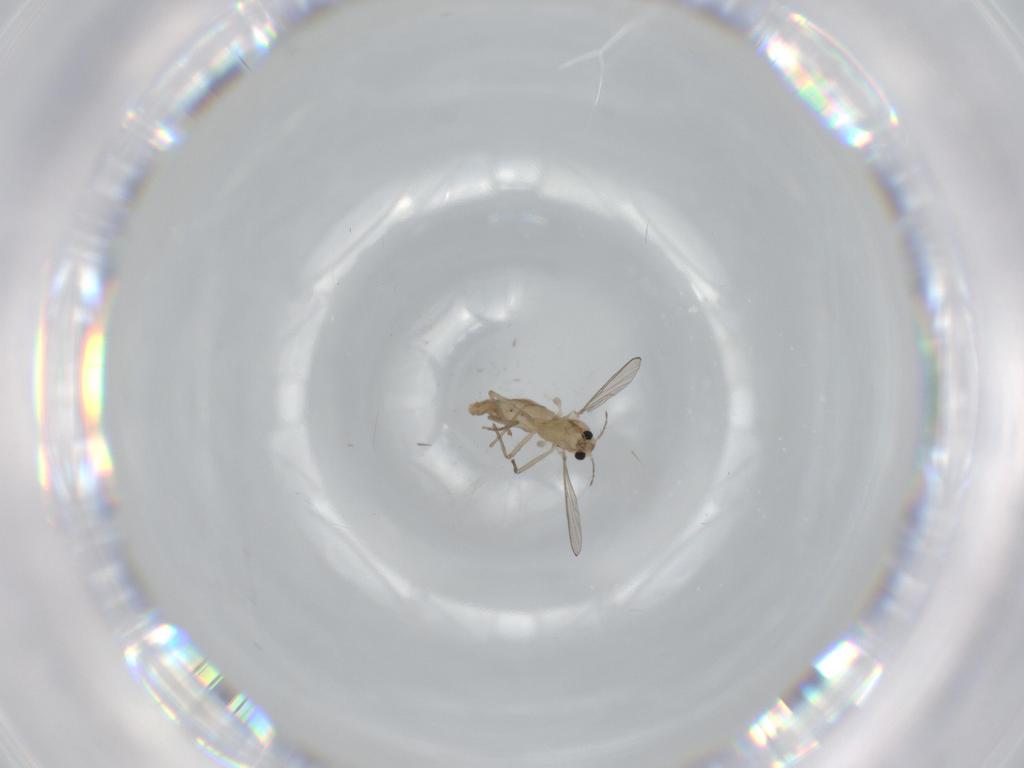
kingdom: Animalia
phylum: Arthropoda
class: Insecta
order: Diptera
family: Chironomidae
